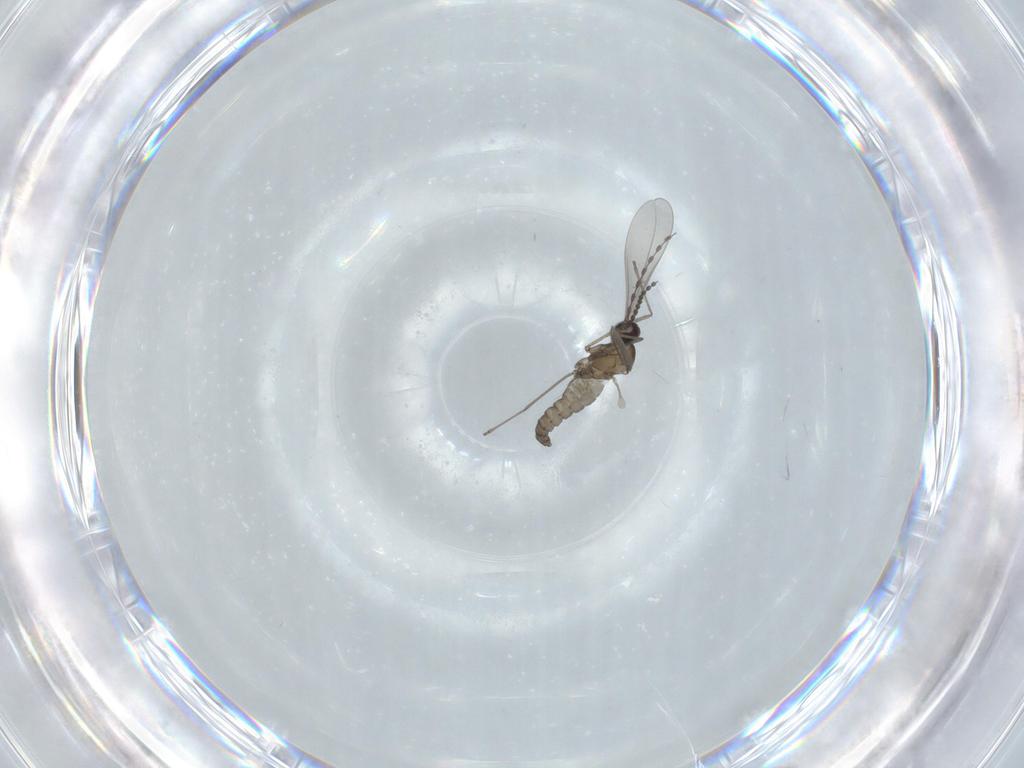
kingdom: Animalia
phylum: Arthropoda
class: Insecta
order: Diptera
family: Cecidomyiidae
